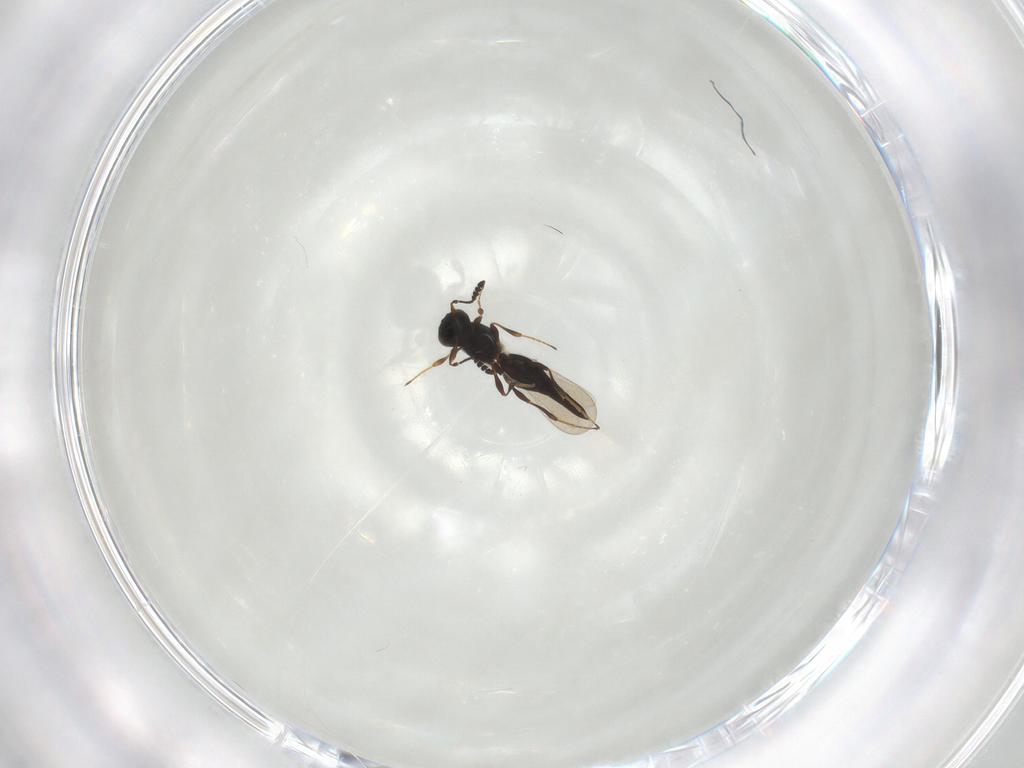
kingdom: Animalia
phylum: Arthropoda
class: Insecta
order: Hymenoptera
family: Platygastridae
